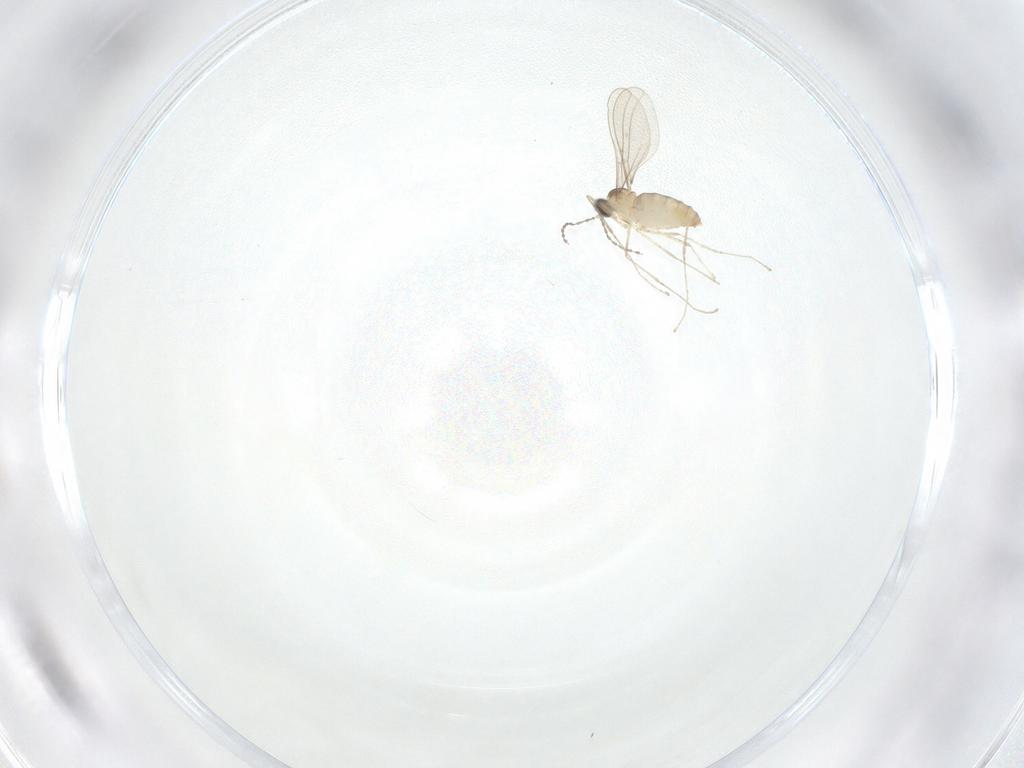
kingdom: Animalia
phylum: Arthropoda
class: Insecta
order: Diptera
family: Cecidomyiidae
